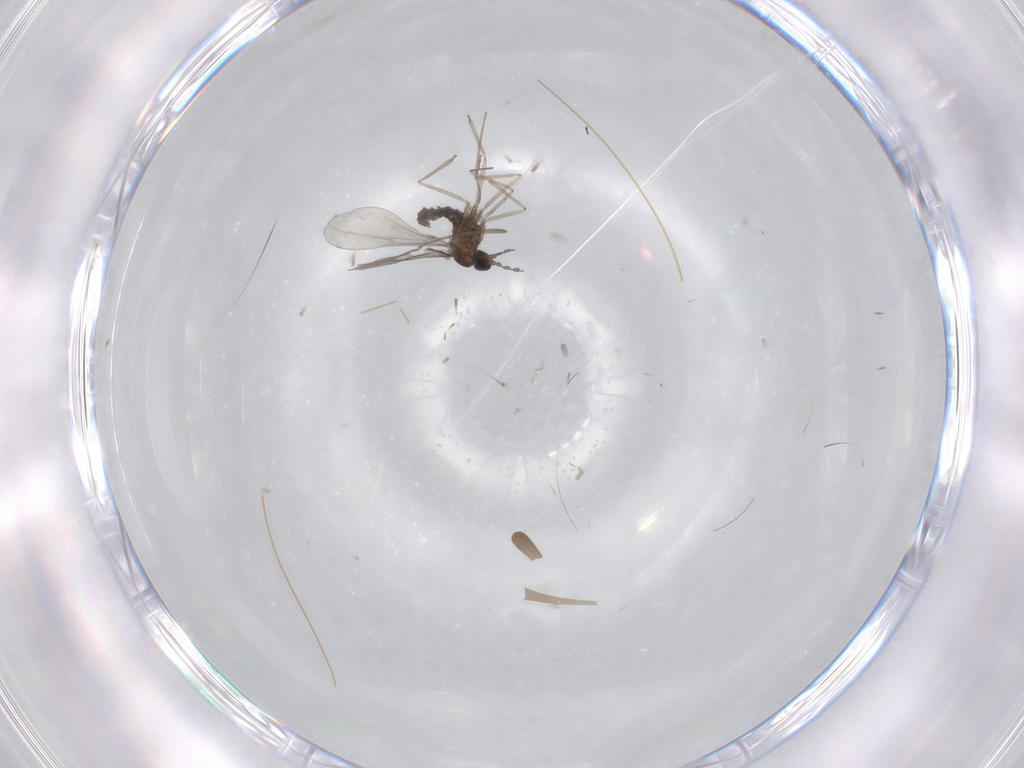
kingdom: Animalia
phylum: Arthropoda
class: Insecta
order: Diptera
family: Cecidomyiidae
